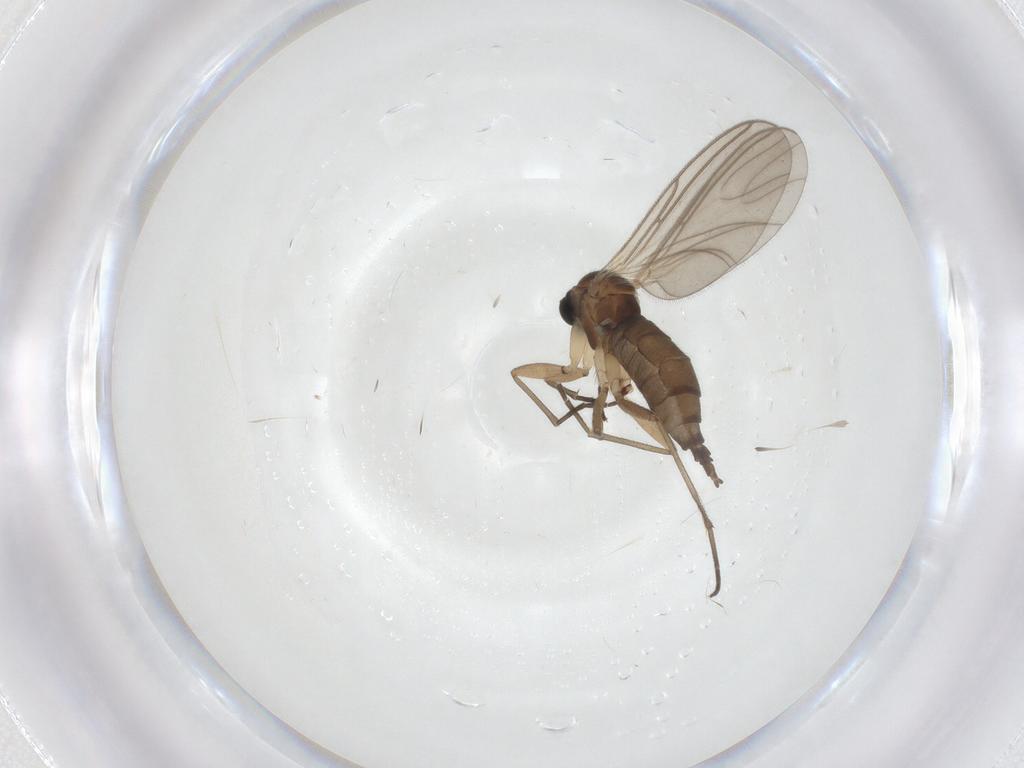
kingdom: Animalia
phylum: Arthropoda
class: Insecta
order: Diptera
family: Sciaridae
